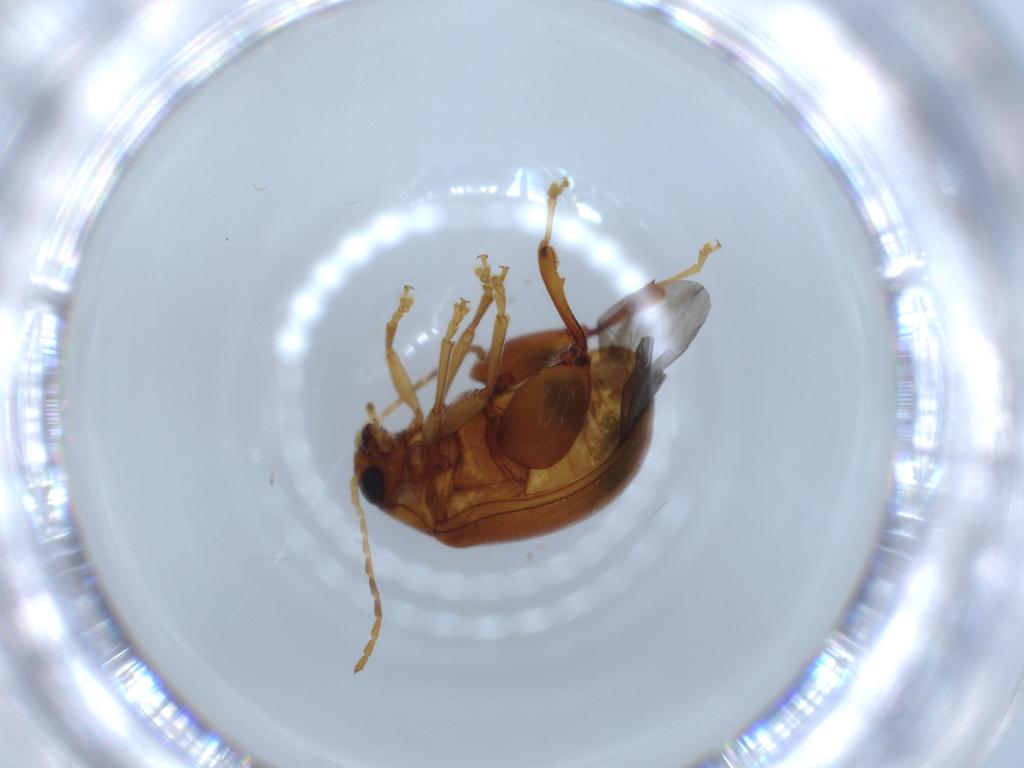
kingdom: Animalia
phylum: Arthropoda
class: Insecta
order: Coleoptera
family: Chrysomelidae
